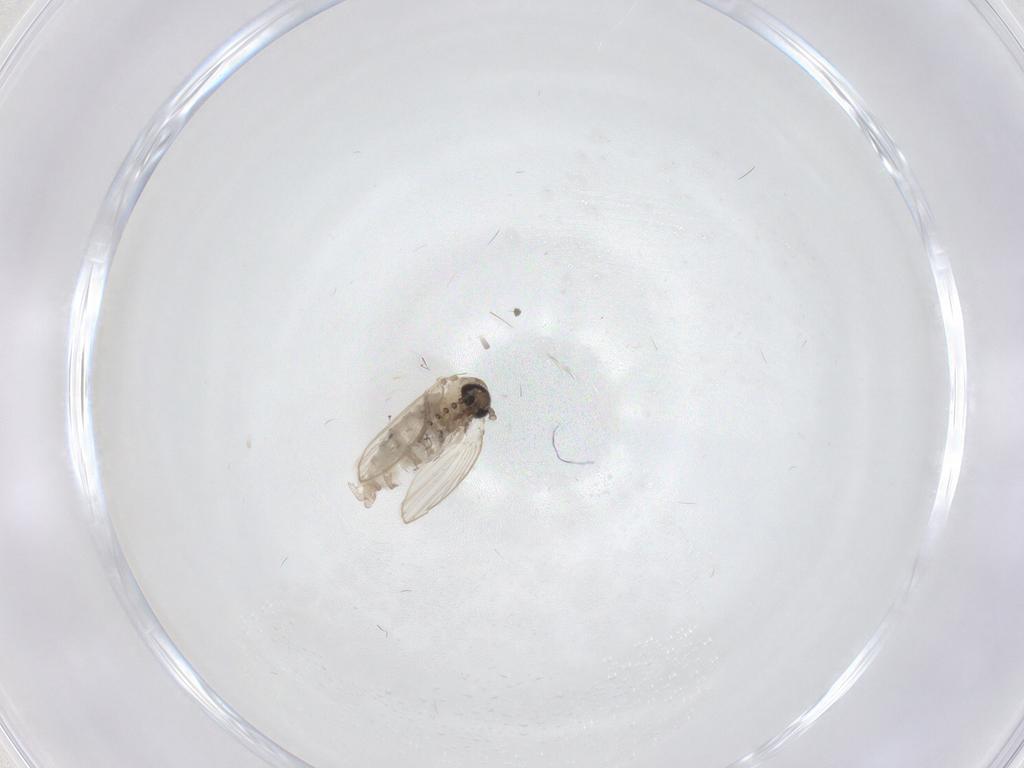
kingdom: Animalia
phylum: Arthropoda
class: Insecta
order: Diptera
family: Psychodidae
